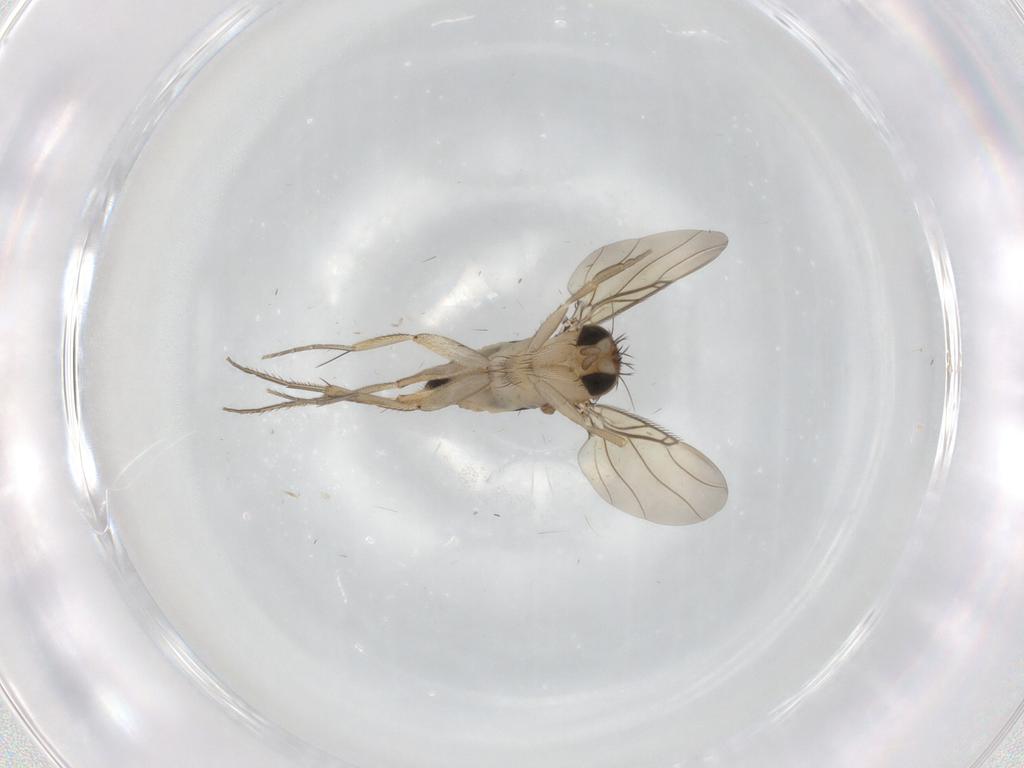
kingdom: Animalia
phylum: Arthropoda
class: Insecta
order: Diptera
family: Phoridae
